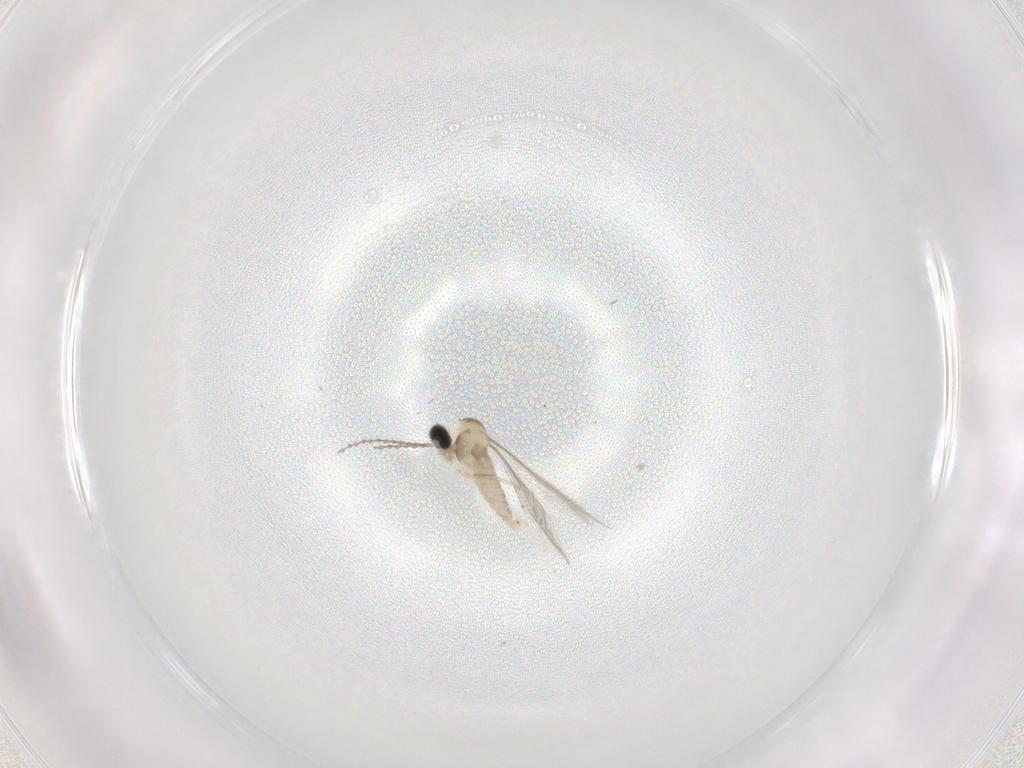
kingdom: Animalia
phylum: Arthropoda
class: Insecta
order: Diptera
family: Cecidomyiidae
